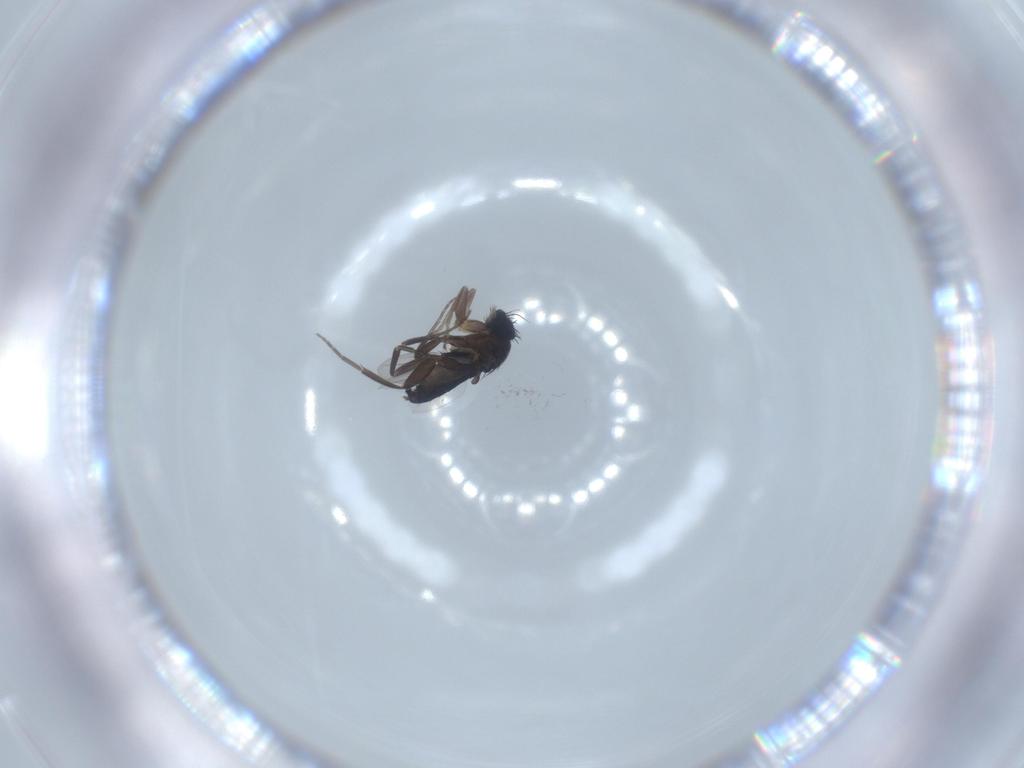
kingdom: Animalia
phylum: Arthropoda
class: Insecta
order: Diptera
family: Phoridae
